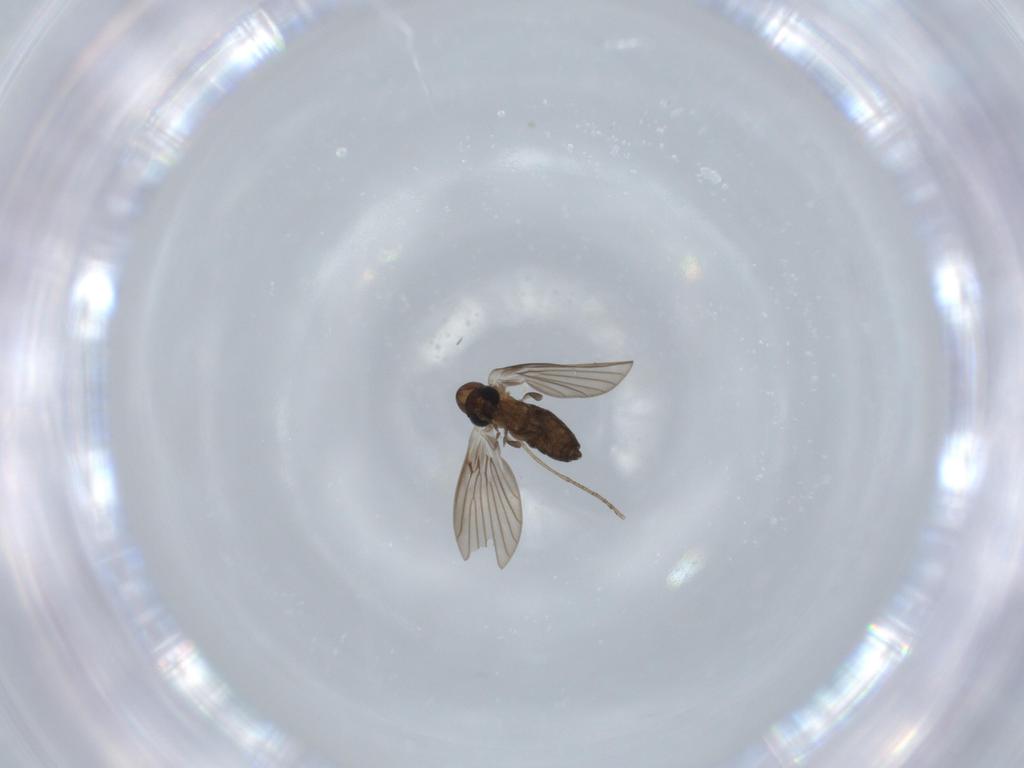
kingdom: Animalia
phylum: Arthropoda
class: Insecta
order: Diptera
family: Psychodidae
